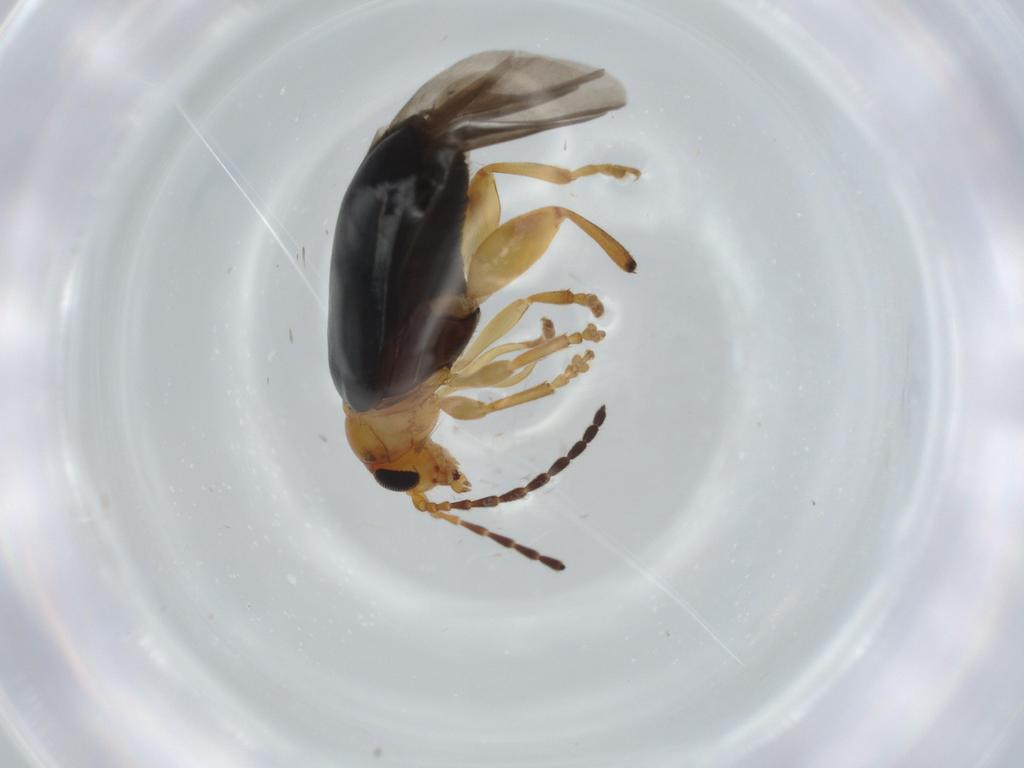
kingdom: Animalia
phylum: Arthropoda
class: Insecta
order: Coleoptera
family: Chrysomelidae
